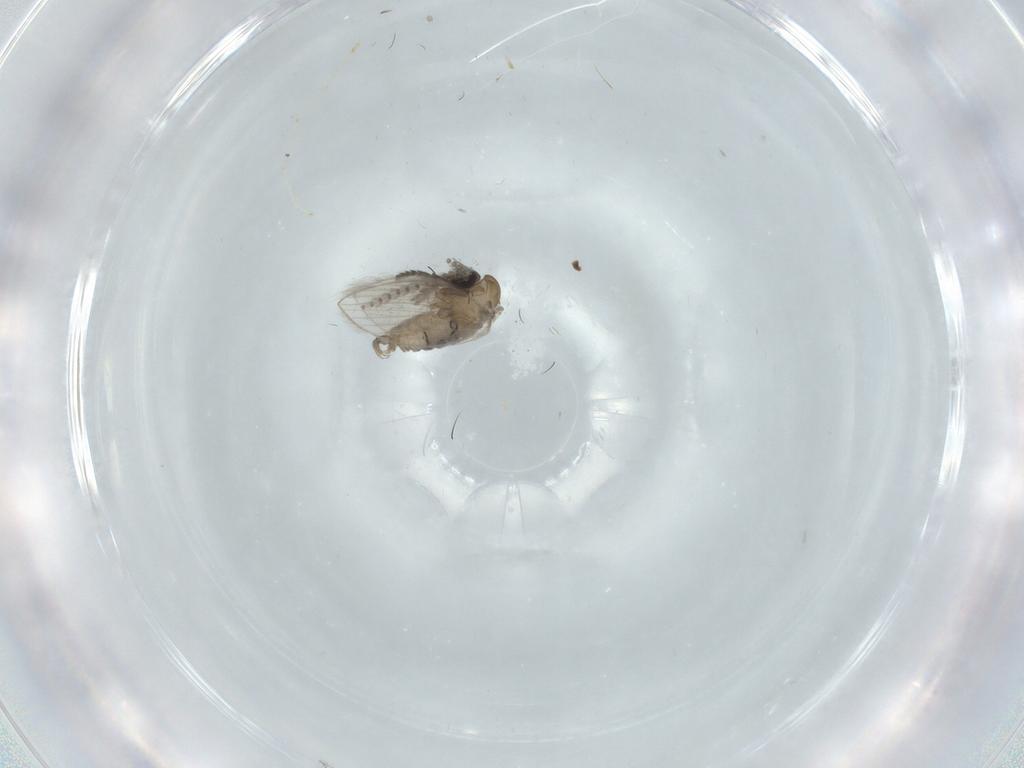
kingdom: Animalia
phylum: Arthropoda
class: Insecta
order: Diptera
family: Psychodidae
